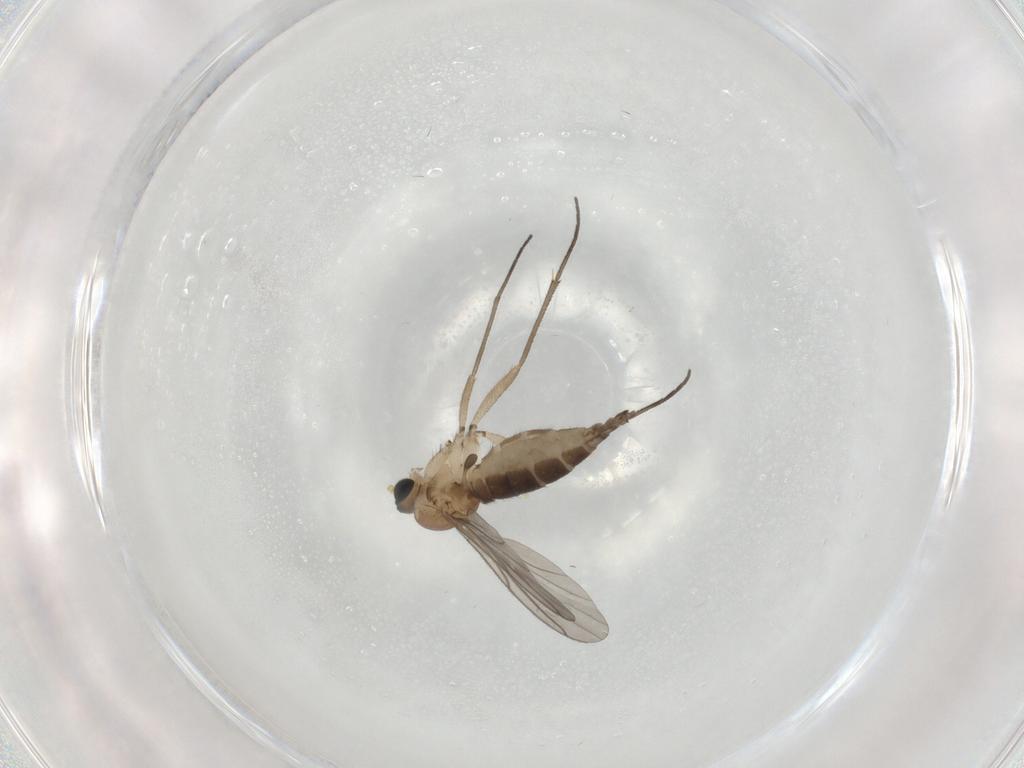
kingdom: Animalia
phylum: Arthropoda
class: Insecta
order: Diptera
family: Sciaridae
